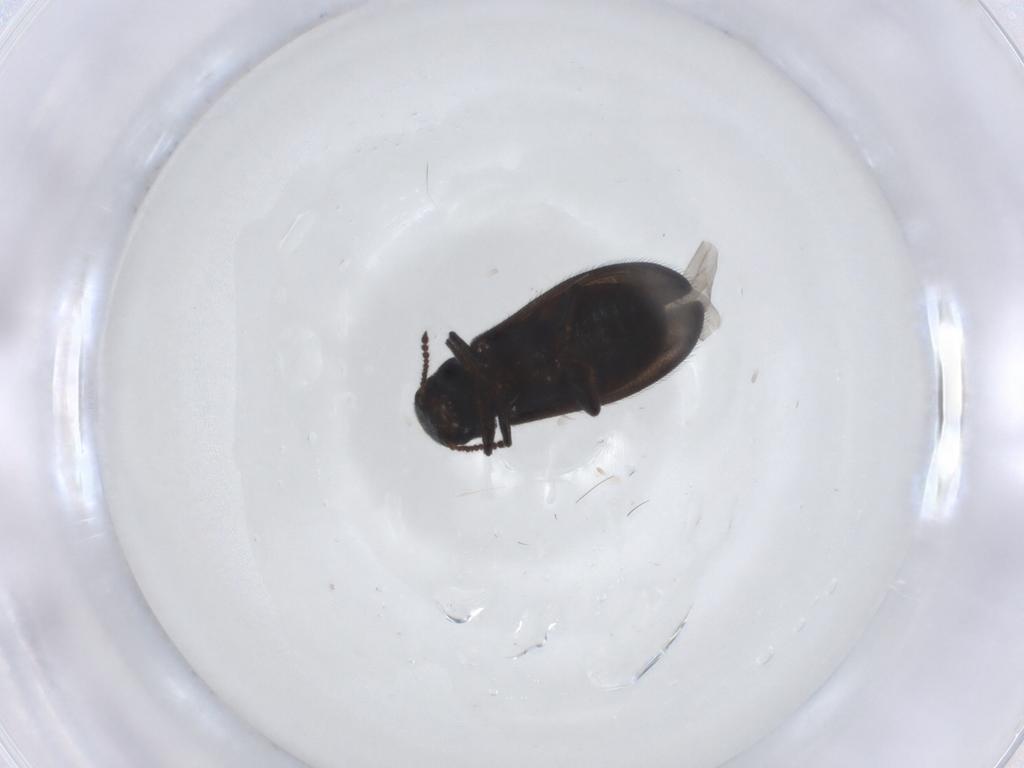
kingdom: Animalia
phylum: Arthropoda
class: Insecta
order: Coleoptera
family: Melyridae
